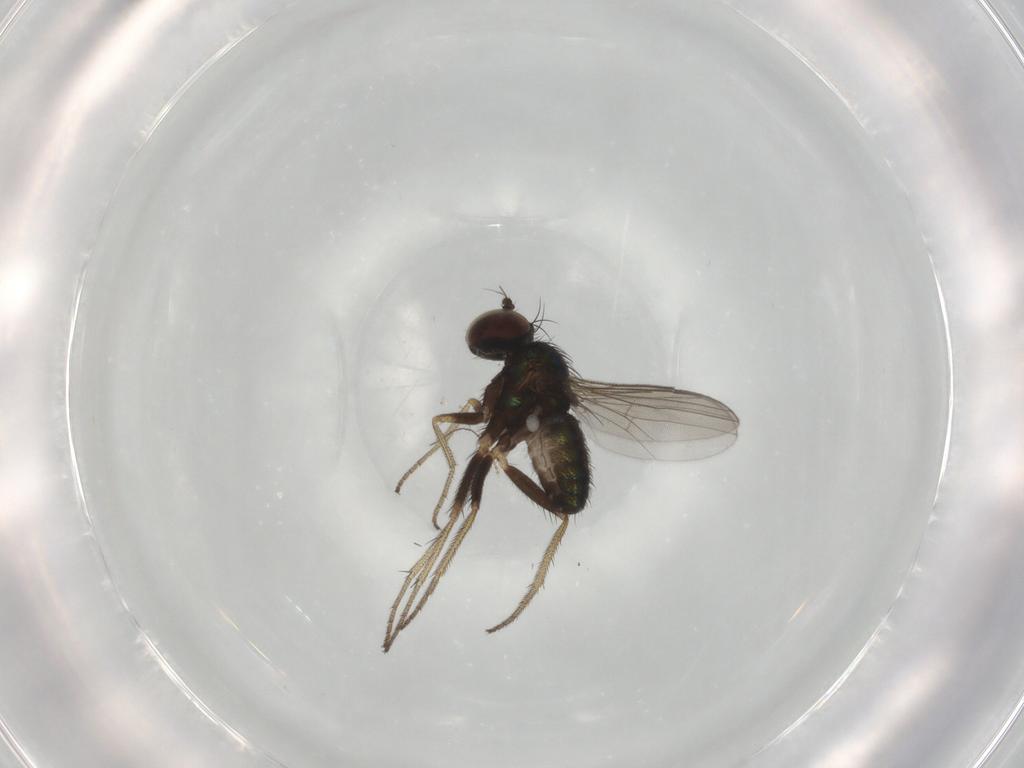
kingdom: Animalia
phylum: Arthropoda
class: Insecta
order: Diptera
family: Ceratopogonidae
